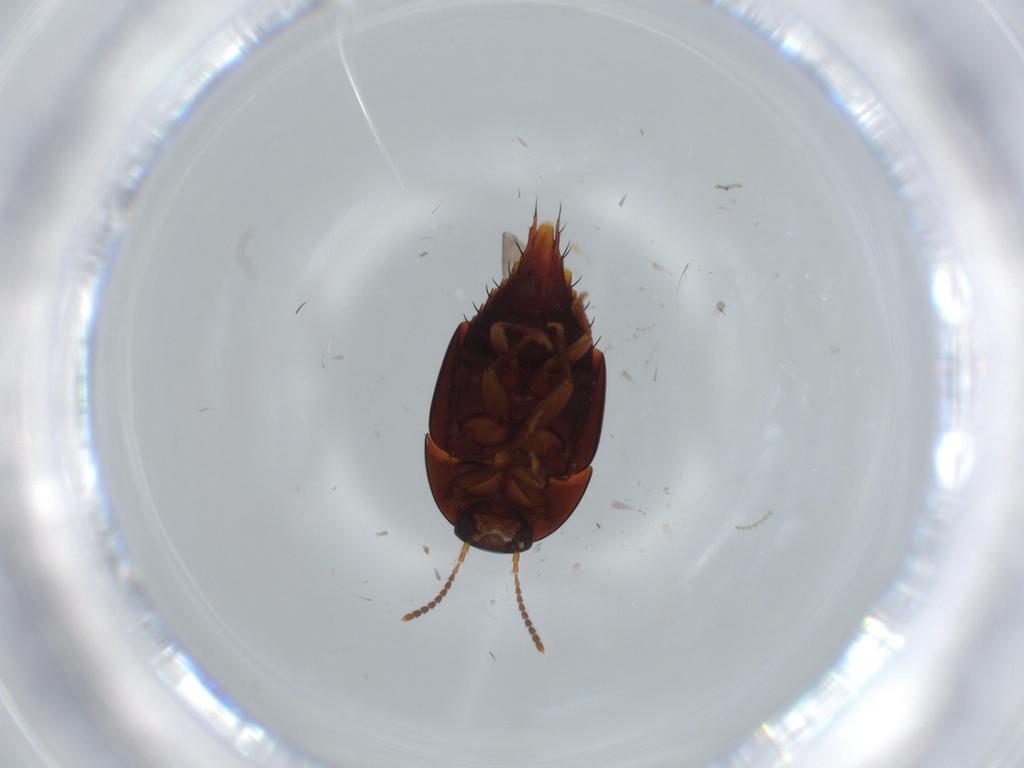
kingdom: Animalia
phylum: Arthropoda
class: Insecta
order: Coleoptera
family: Staphylinidae
